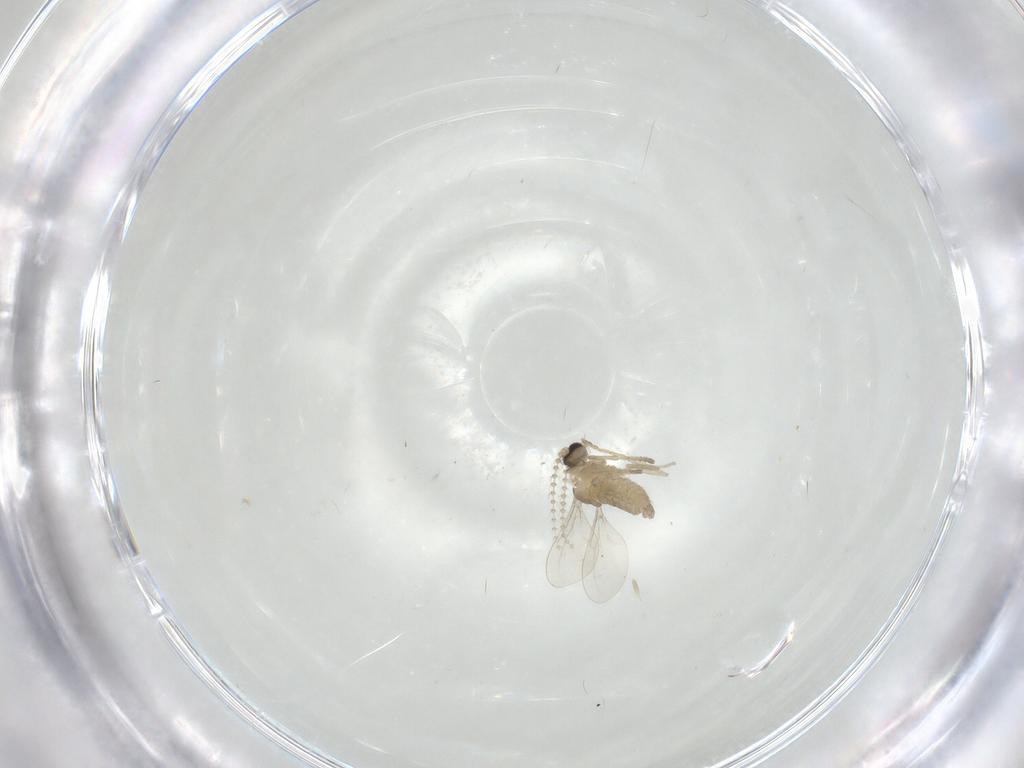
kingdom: Animalia
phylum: Arthropoda
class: Insecta
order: Diptera
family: Cecidomyiidae
